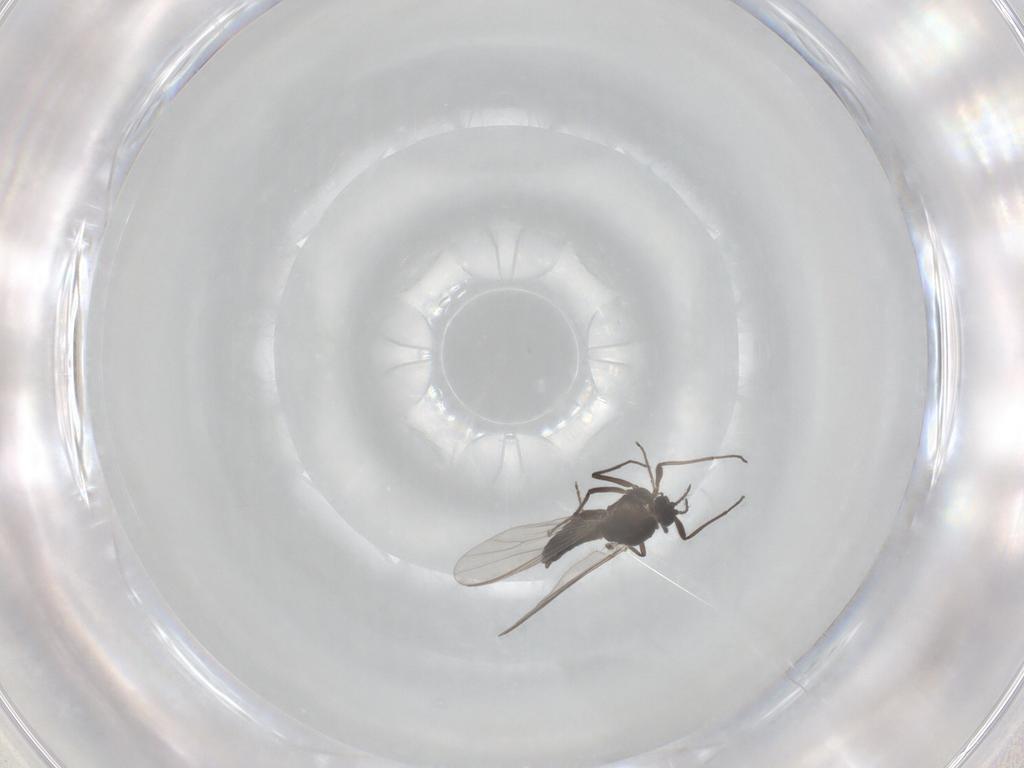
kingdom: Animalia
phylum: Arthropoda
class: Insecta
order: Diptera
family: Chironomidae
